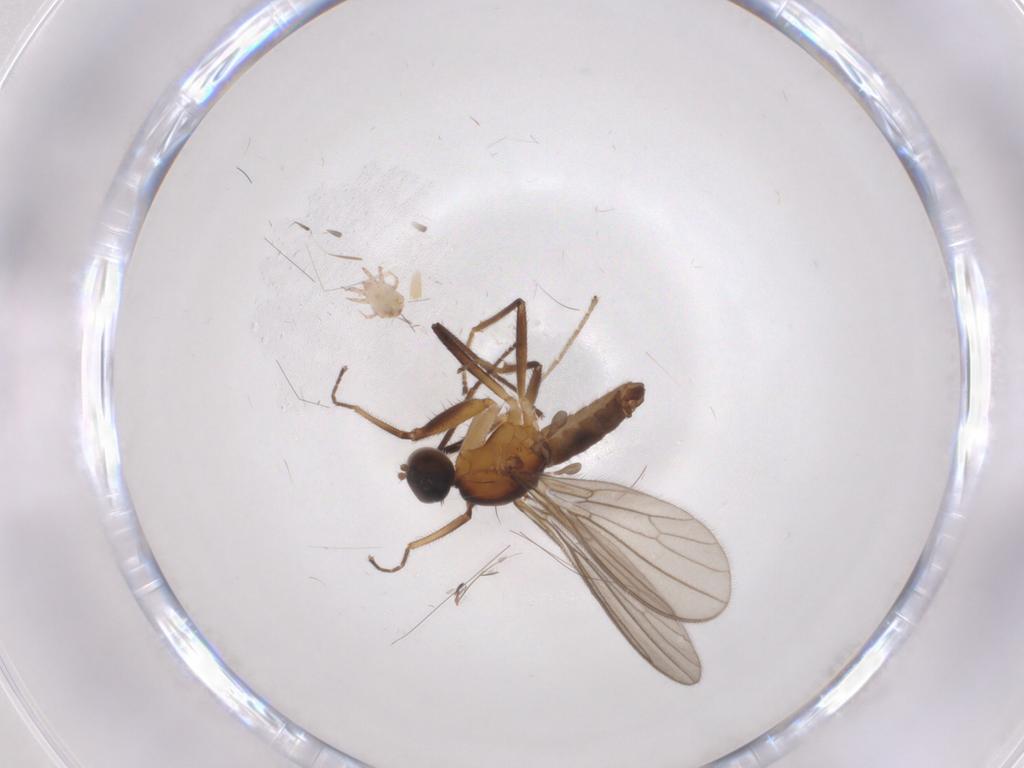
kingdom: Animalia
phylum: Arthropoda
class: Insecta
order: Diptera
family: Empididae
